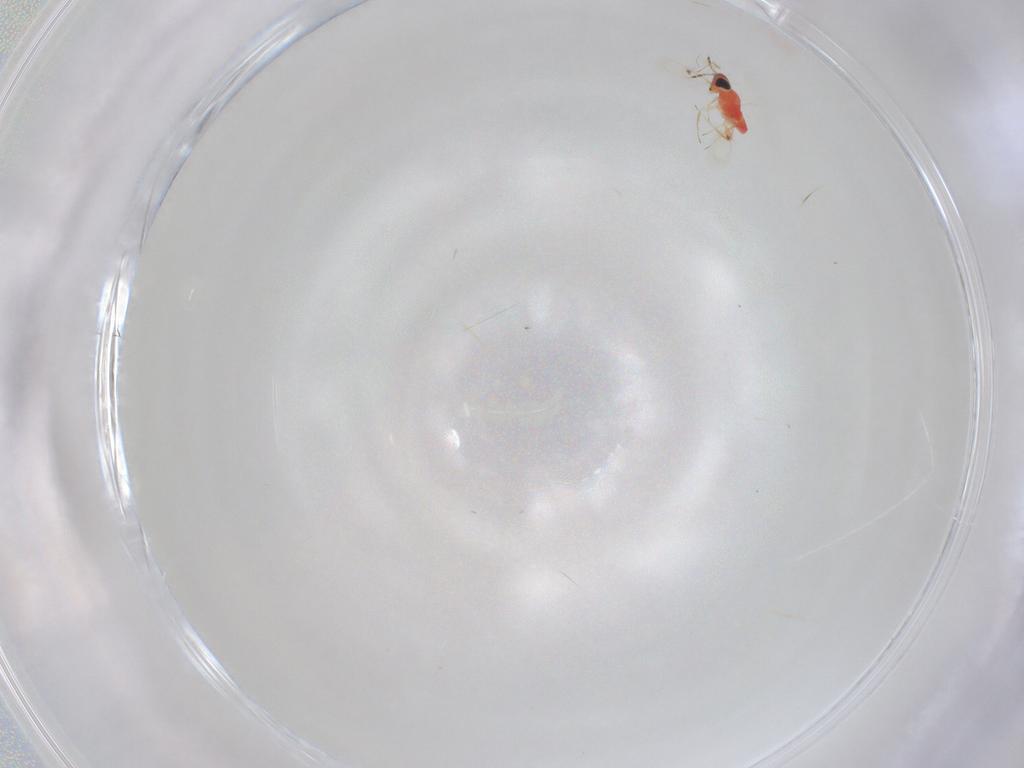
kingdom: Animalia
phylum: Arthropoda
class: Insecta
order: Hymenoptera
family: Trichogrammatidae
